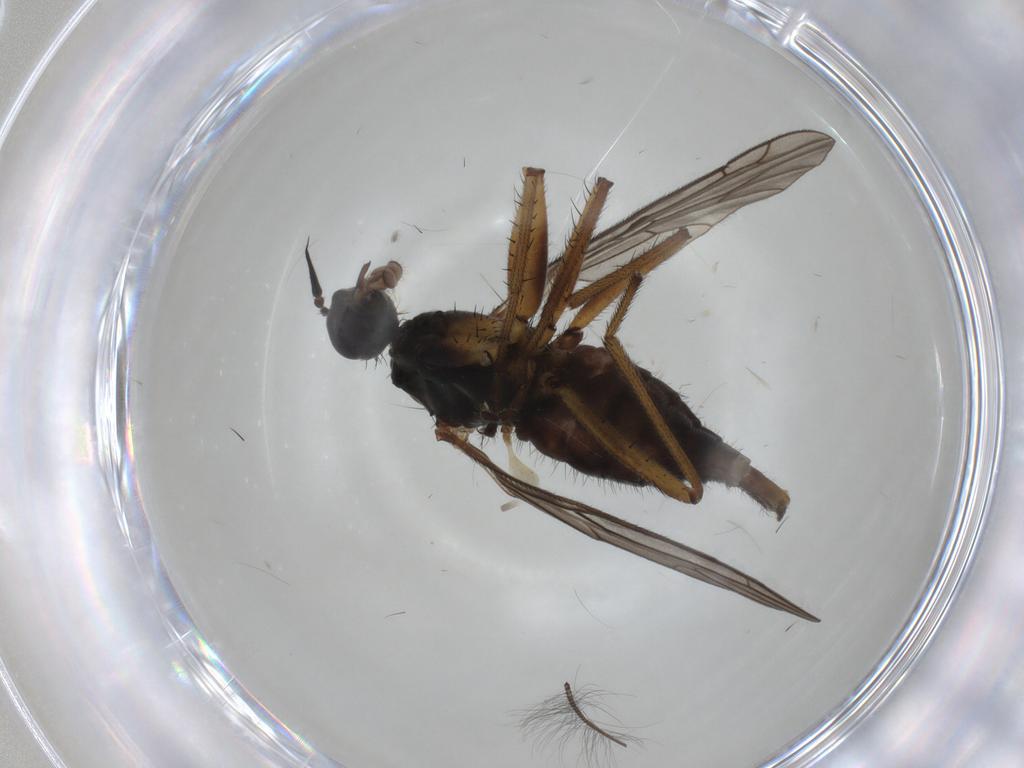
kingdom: Animalia
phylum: Arthropoda
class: Insecta
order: Diptera
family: Empididae
